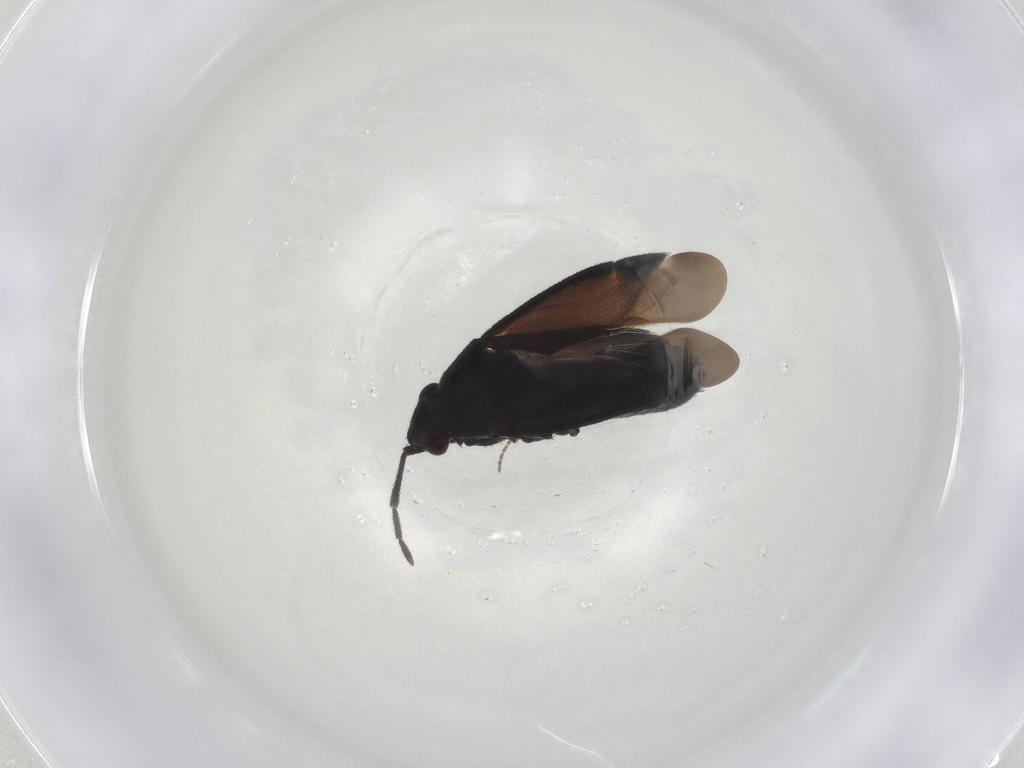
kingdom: Animalia
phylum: Arthropoda
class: Insecta
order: Hemiptera
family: Miridae
